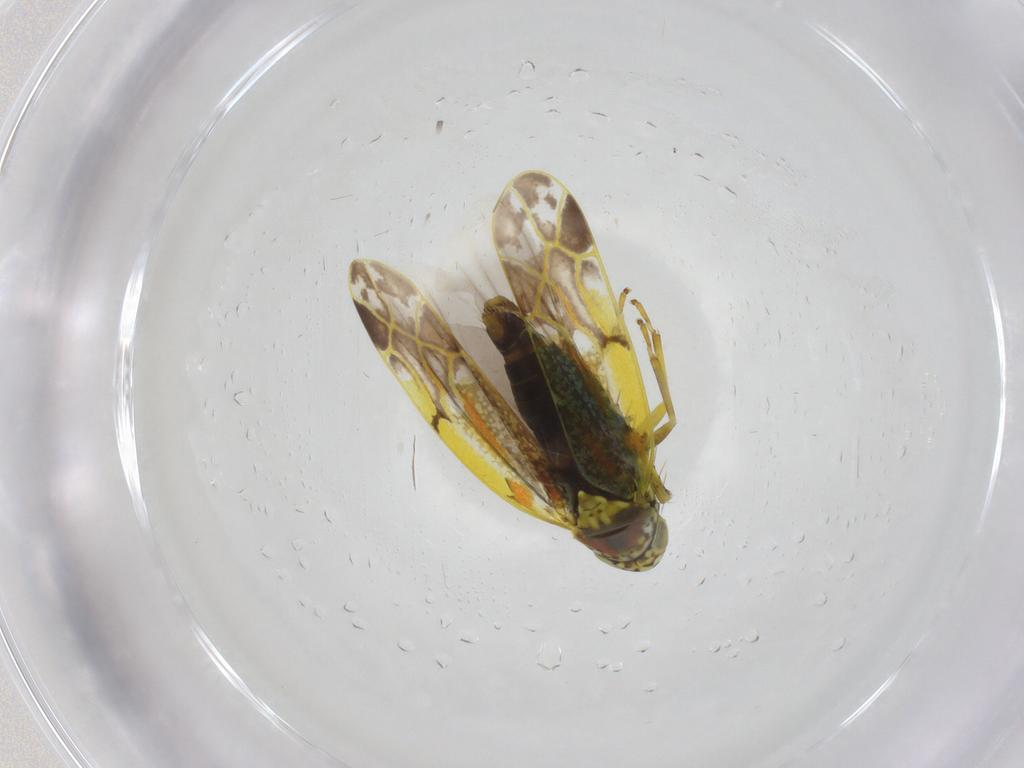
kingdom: Animalia
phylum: Arthropoda
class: Insecta
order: Hemiptera
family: Cicadellidae
